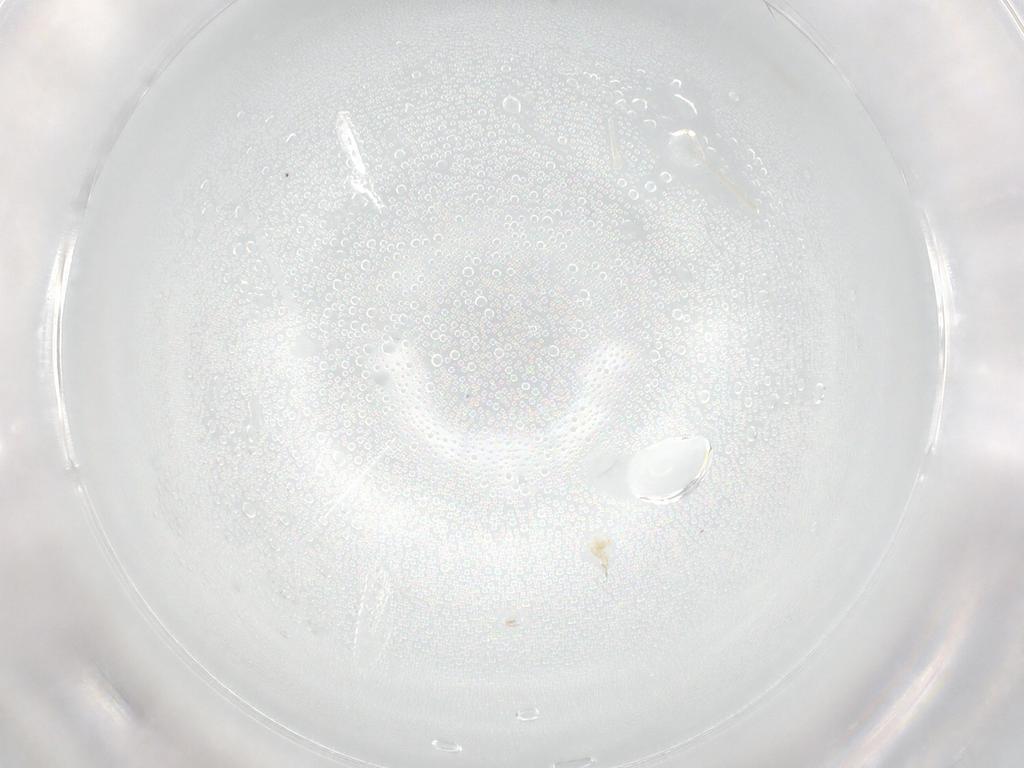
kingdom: Animalia
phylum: Arthropoda
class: Insecta
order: Hymenoptera
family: Scelionidae
